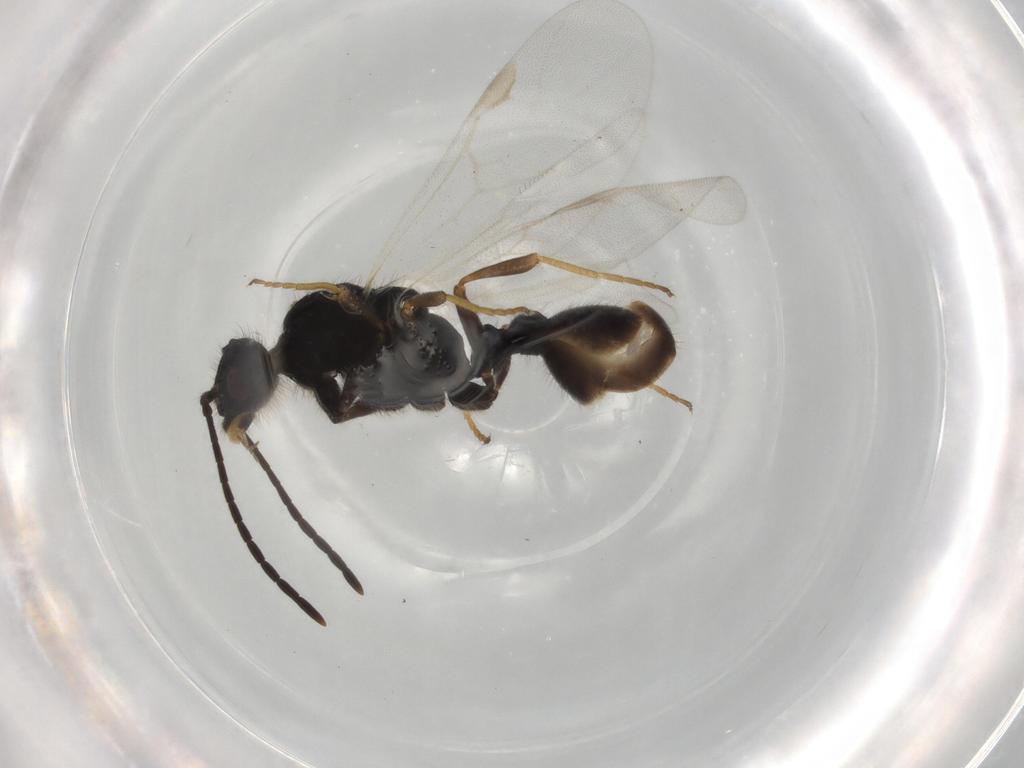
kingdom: Animalia
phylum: Arthropoda
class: Insecta
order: Hymenoptera
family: Formicidae
